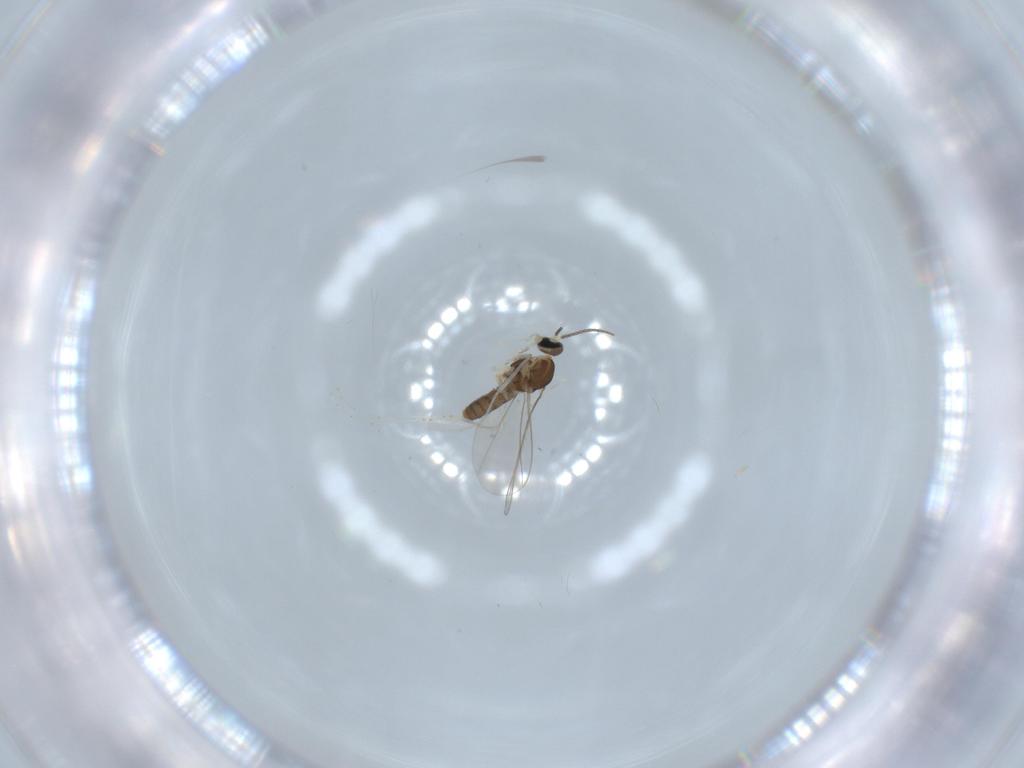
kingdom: Animalia
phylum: Arthropoda
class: Insecta
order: Diptera
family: Cecidomyiidae
